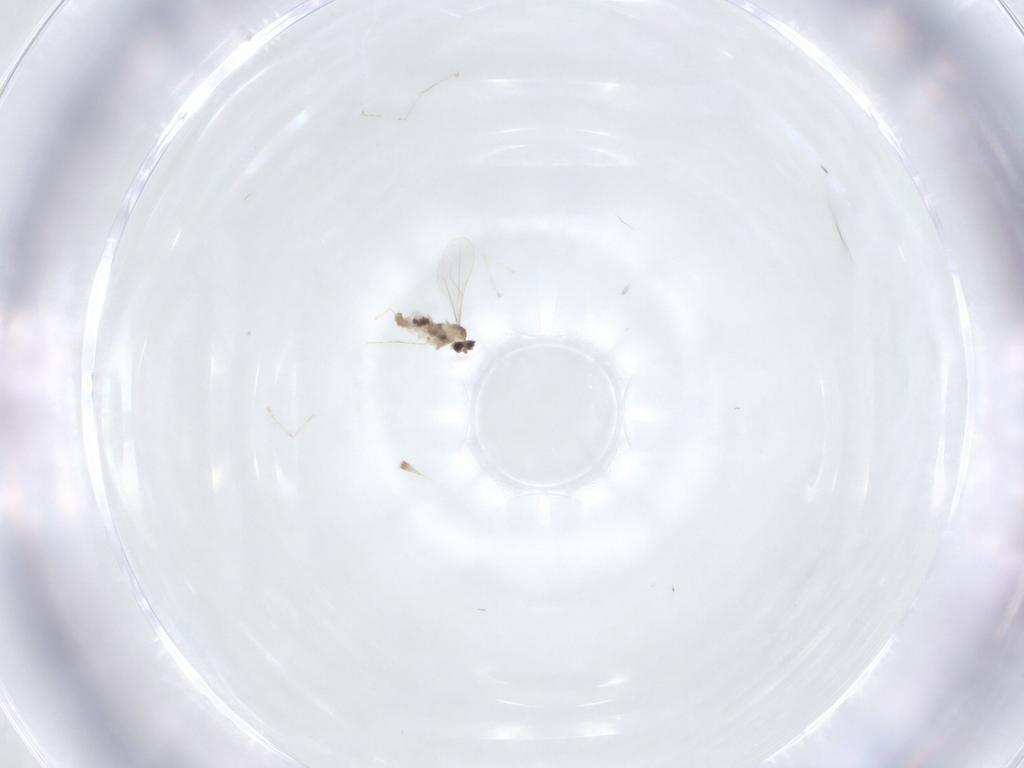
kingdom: Animalia
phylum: Arthropoda
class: Insecta
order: Diptera
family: Cecidomyiidae
